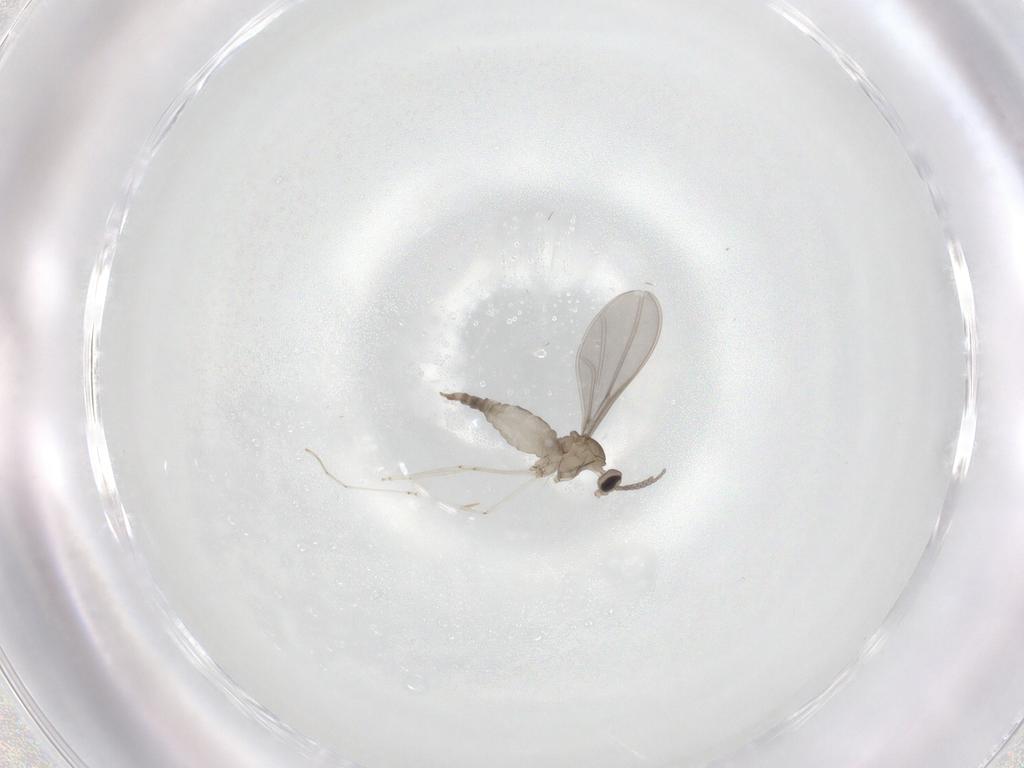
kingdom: Animalia
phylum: Arthropoda
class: Insecta
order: Diptera
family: Cecidomyiidae
